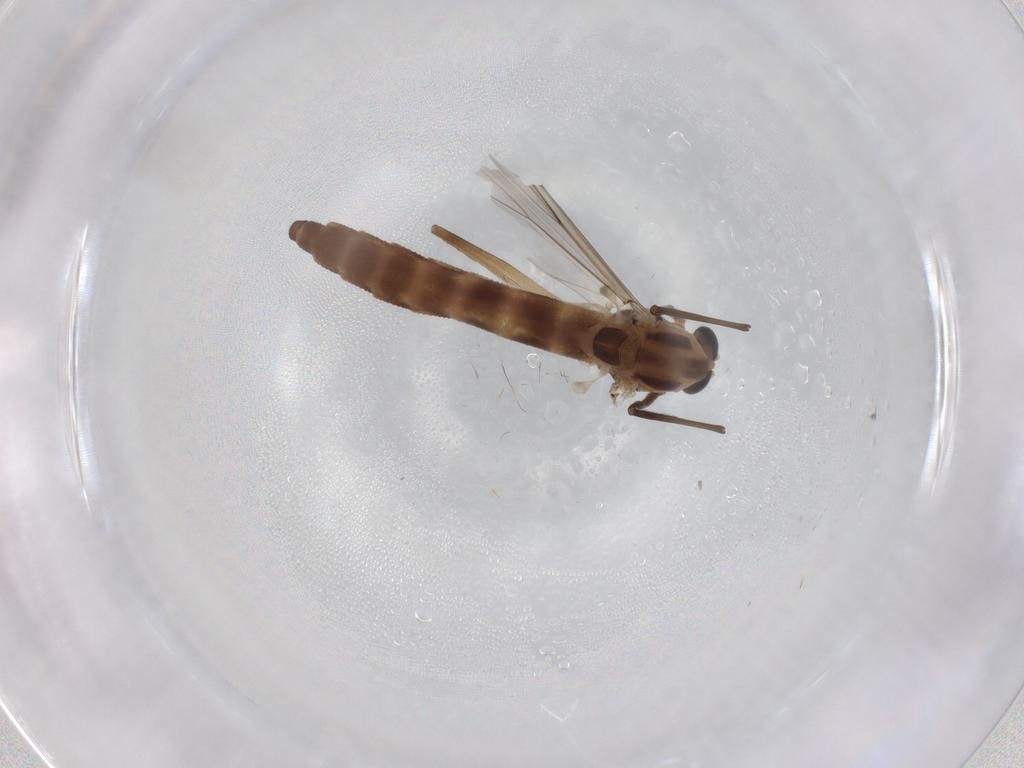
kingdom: Animalia
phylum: Arthropoda
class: Insecta
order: Diptera
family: Chironomidae
